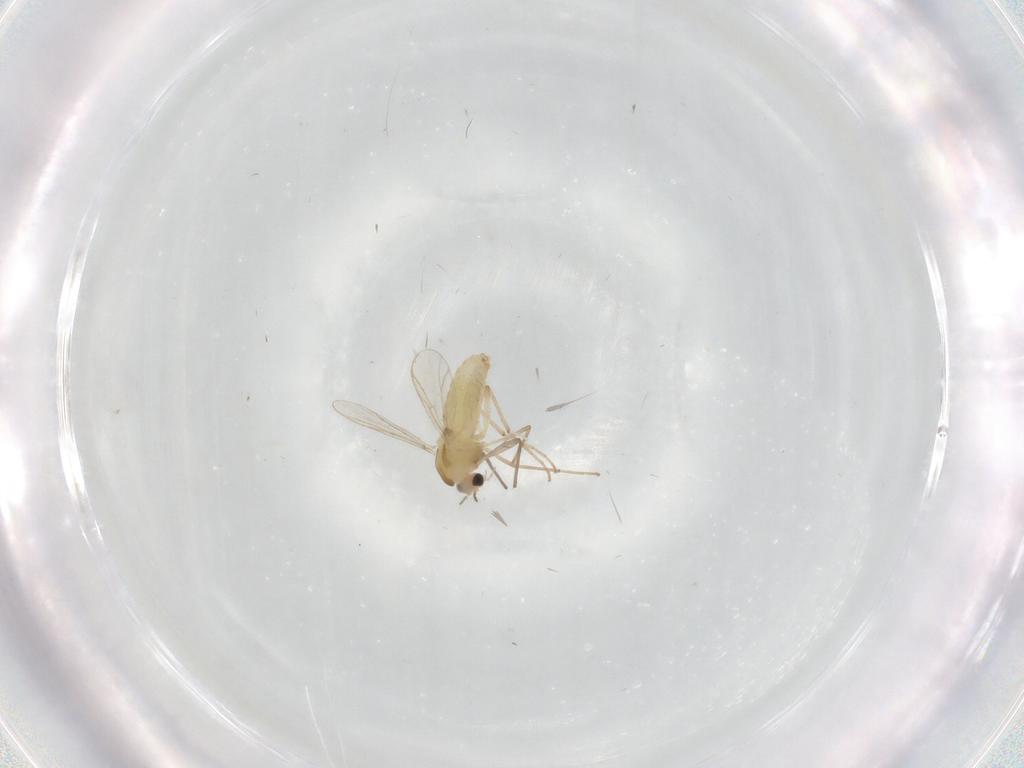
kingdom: Animalia
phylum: Arthropoda
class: Insecta
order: Diptera
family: Chironomidae
